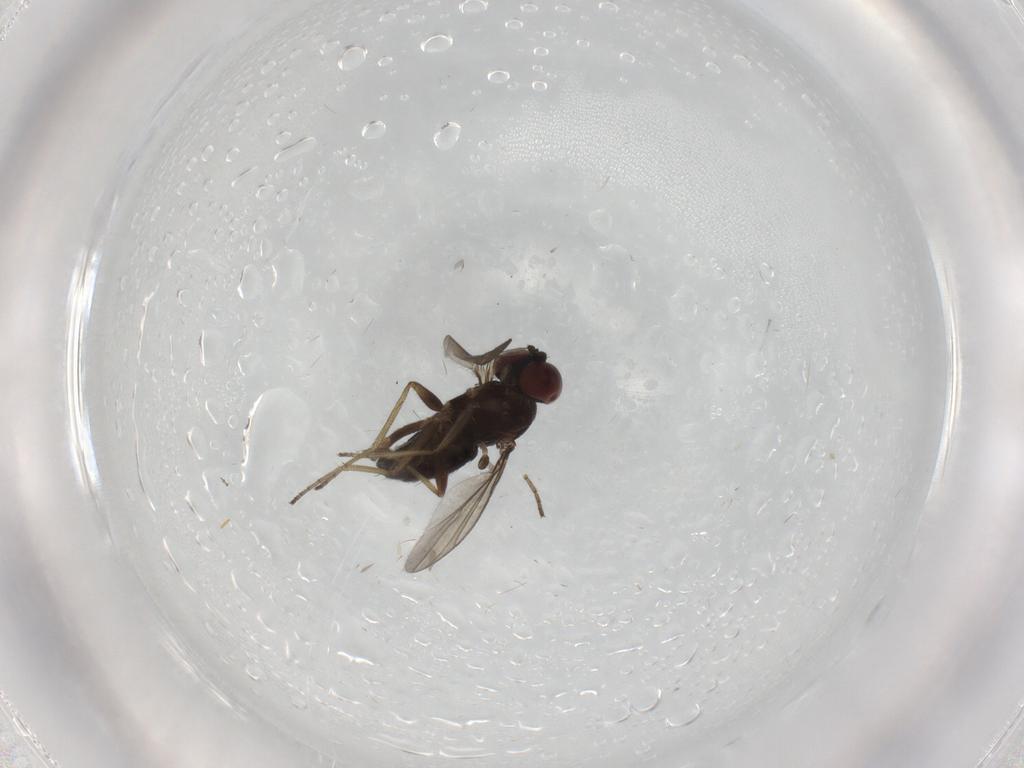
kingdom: Animalia
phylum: Arthropoda
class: Insecta
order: Diptera
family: Dolichopodidae
